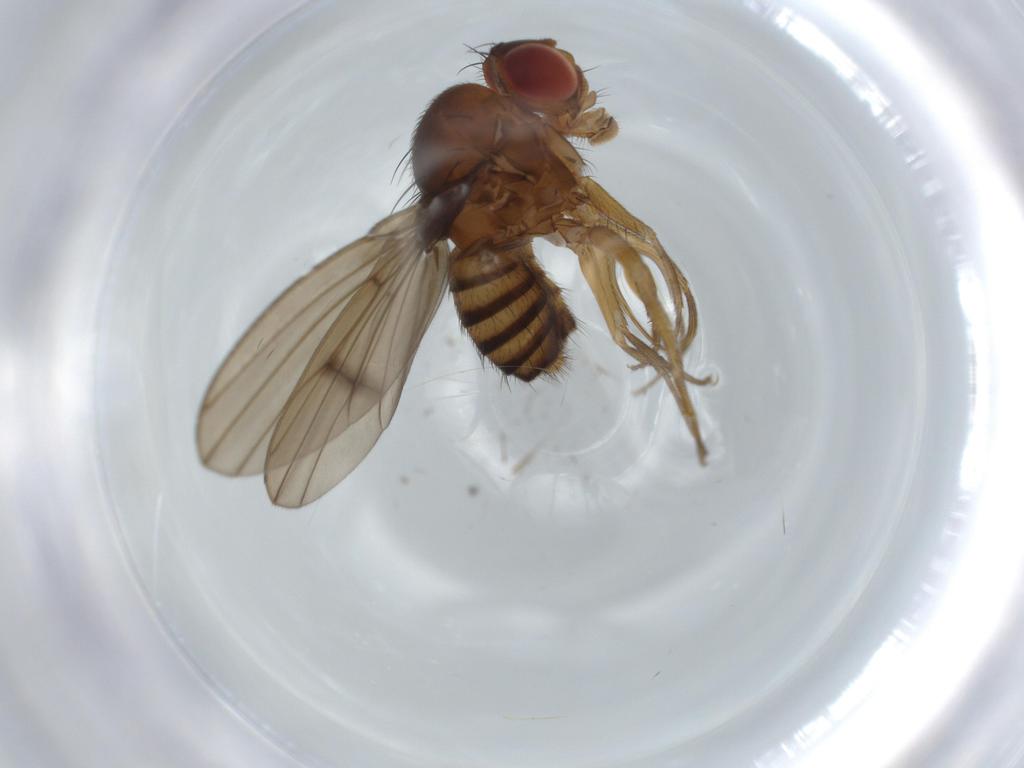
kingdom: Animalia
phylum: Arthropoda
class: Insecta
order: Diptera
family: Drosophilidae
